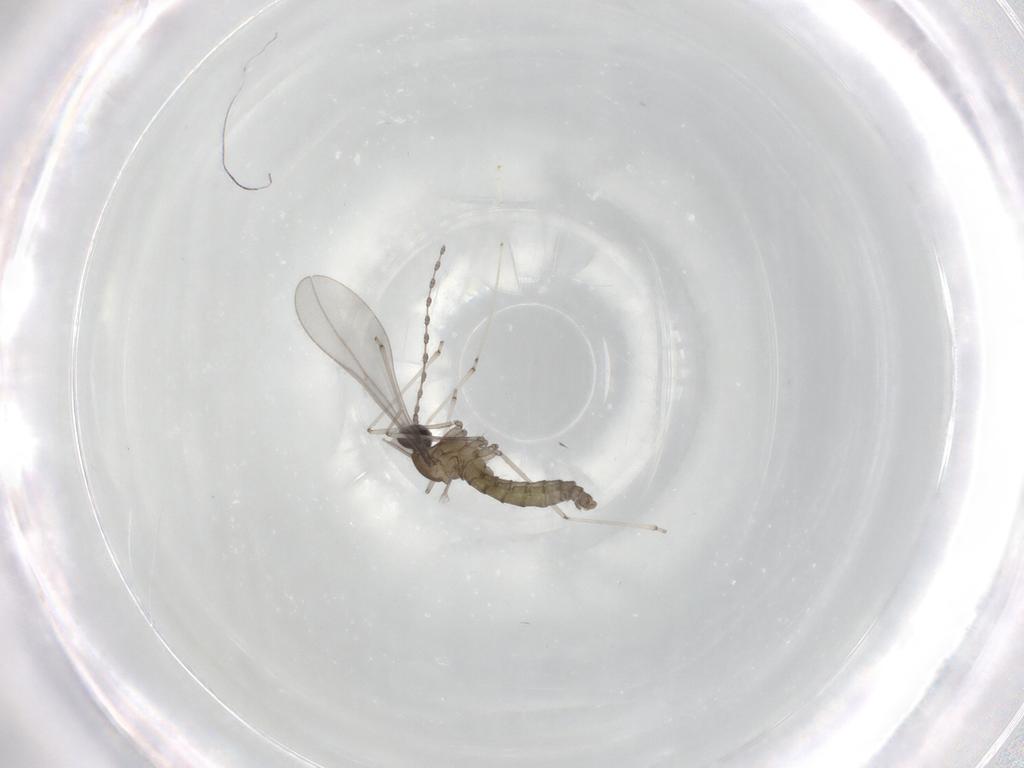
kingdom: Animalia
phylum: Arthropoda
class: Insecta
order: Diptera
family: Cecidomyiidae
